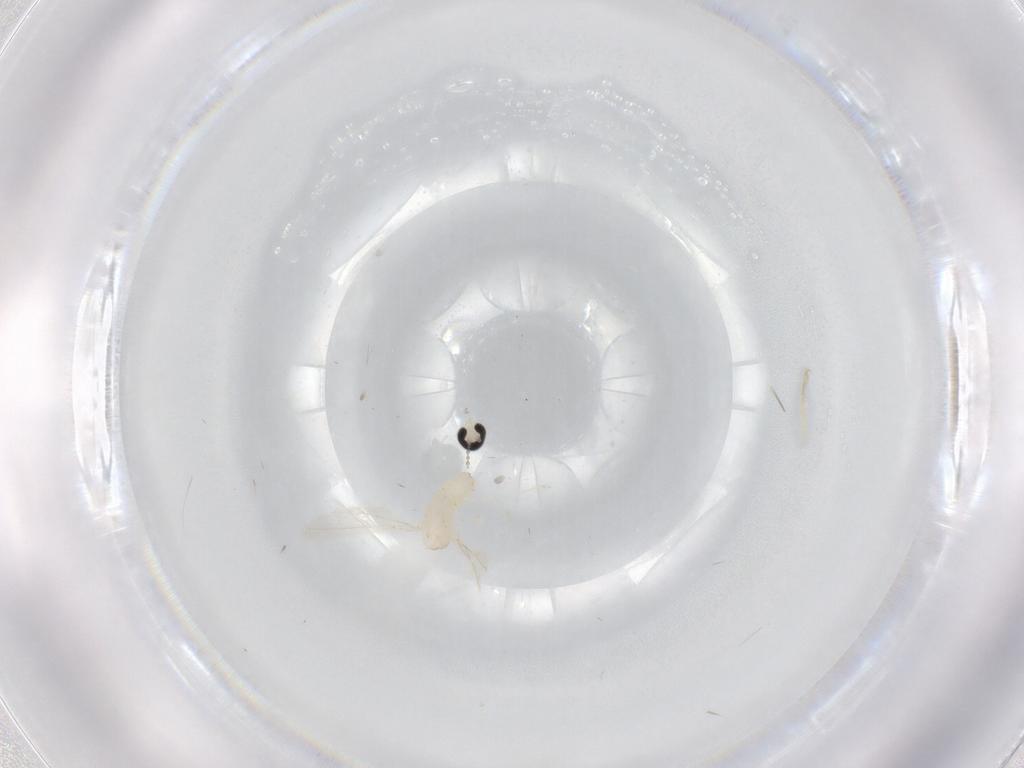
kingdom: Animalia
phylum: Arthropoda
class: Insecta
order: Diptera
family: Cecidomyiidae
